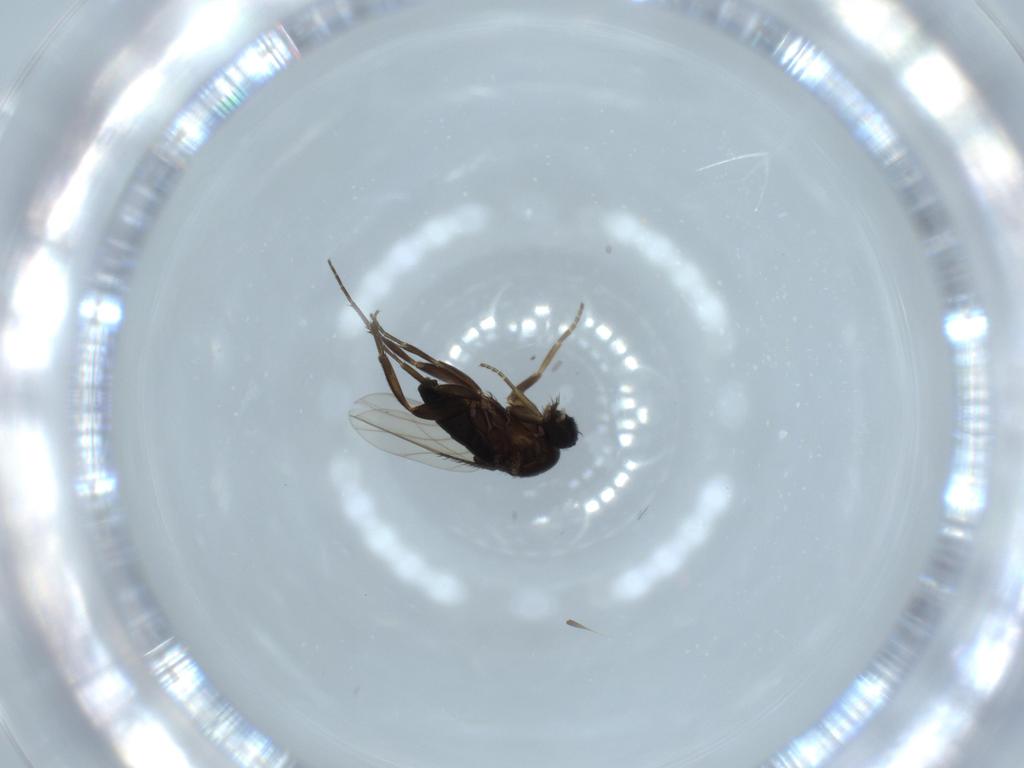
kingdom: Animalia
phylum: Arthropoda
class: Insecta
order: Diptera
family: Phoridae
